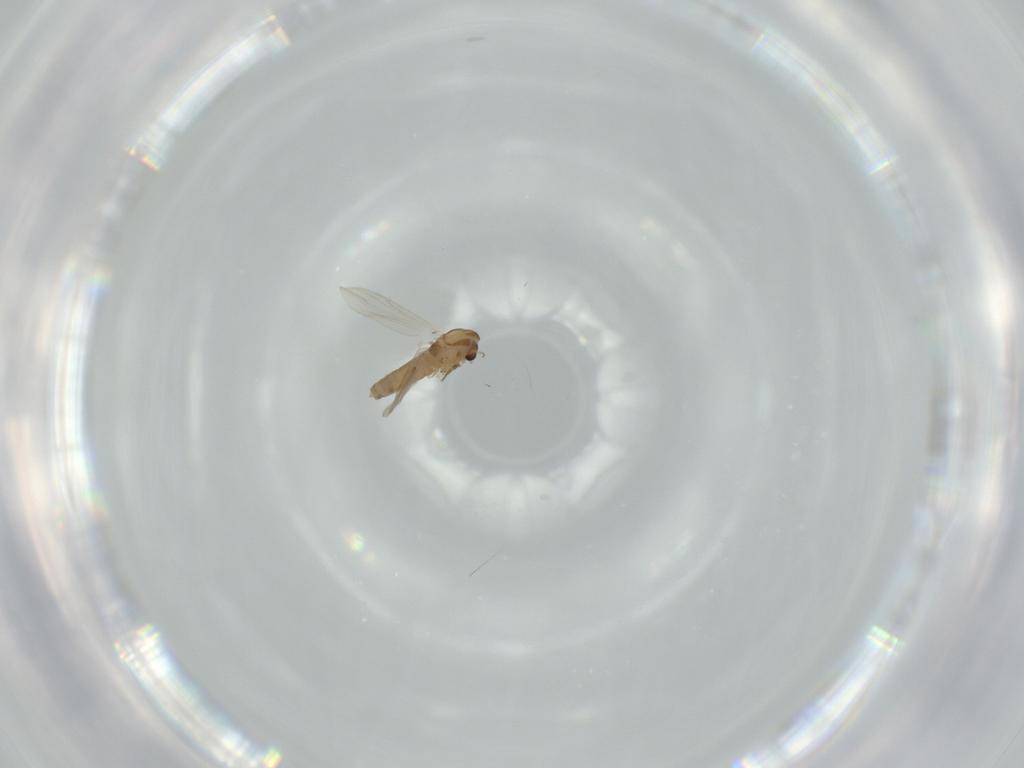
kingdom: Animalia
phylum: Arthropoda
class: Insecta
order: Diptera
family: Chironomidae
